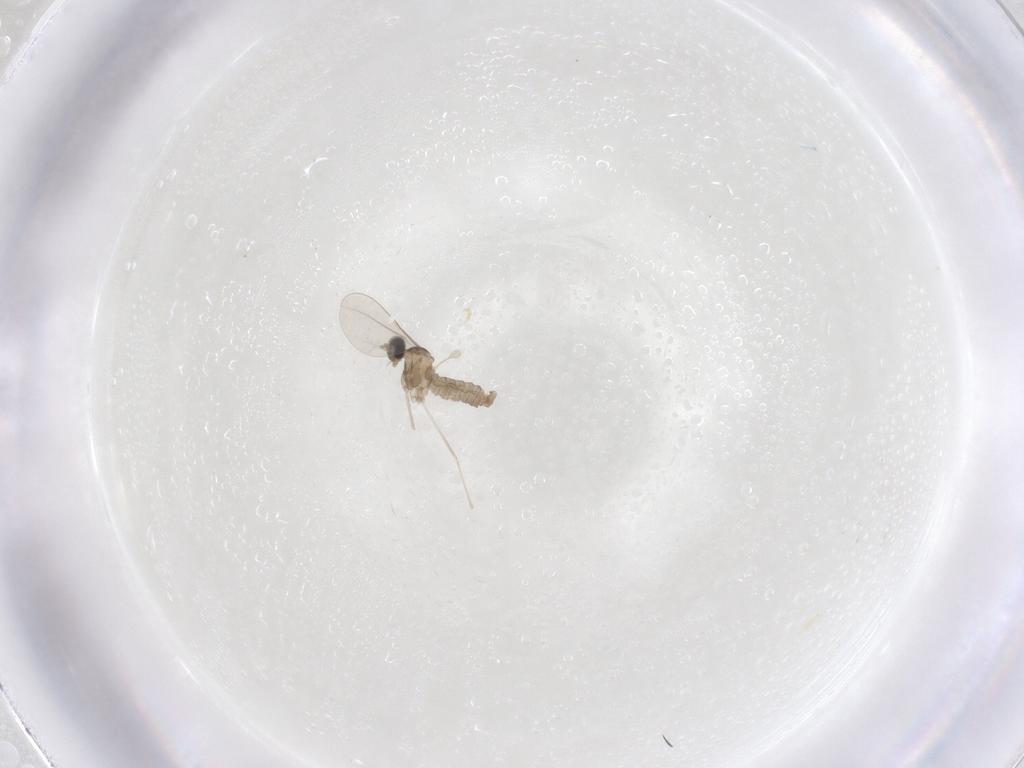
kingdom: Animalia
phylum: Arthropoda
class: Insecta
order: Diptera
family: Cecidomyiidae
